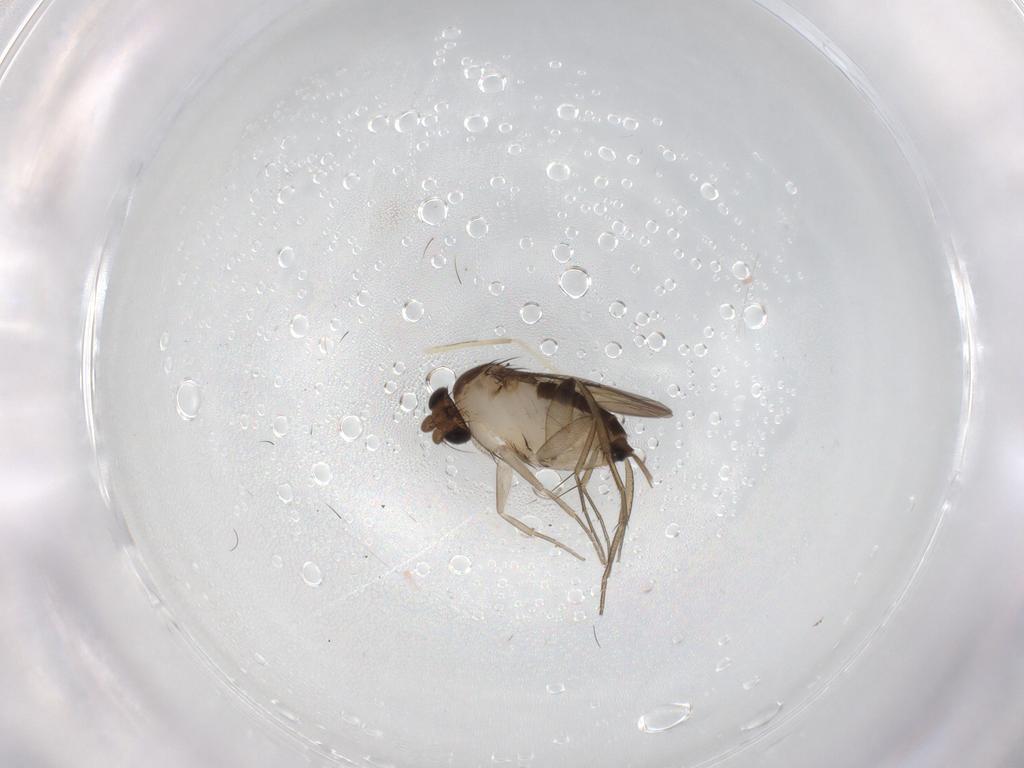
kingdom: Animalia
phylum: Arthropoda
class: Insecta
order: Diptera
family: Phoridae
